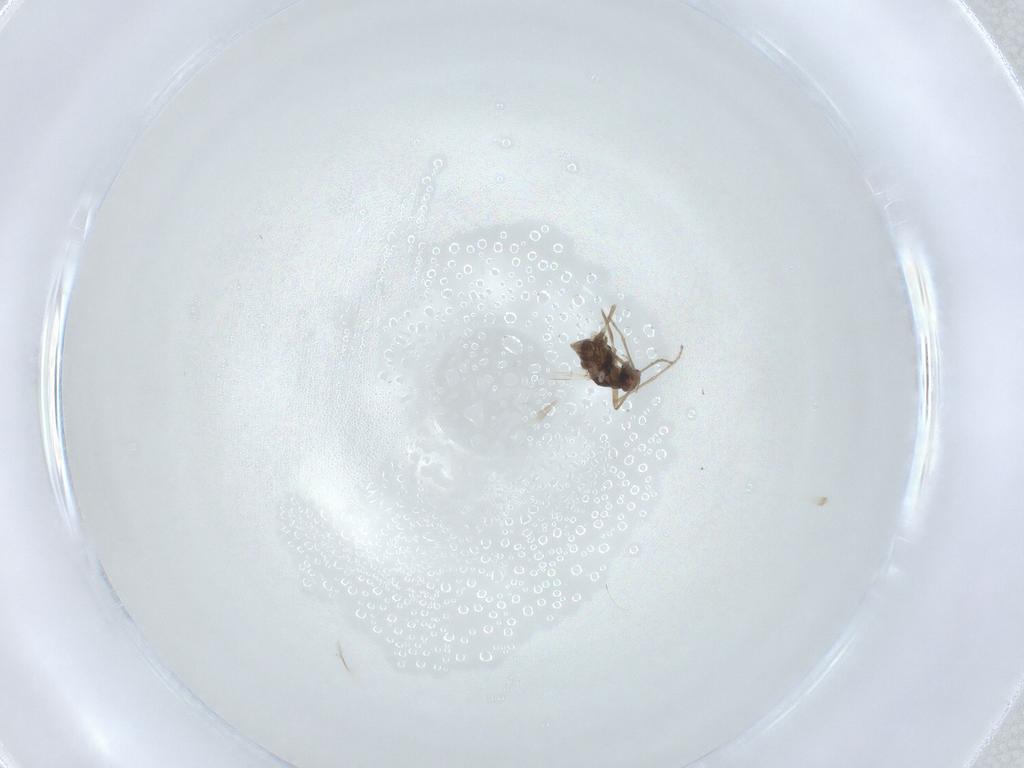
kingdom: Animalia
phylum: Arthropoda
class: Insecta
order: Diptera
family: Cecidomyiidae
